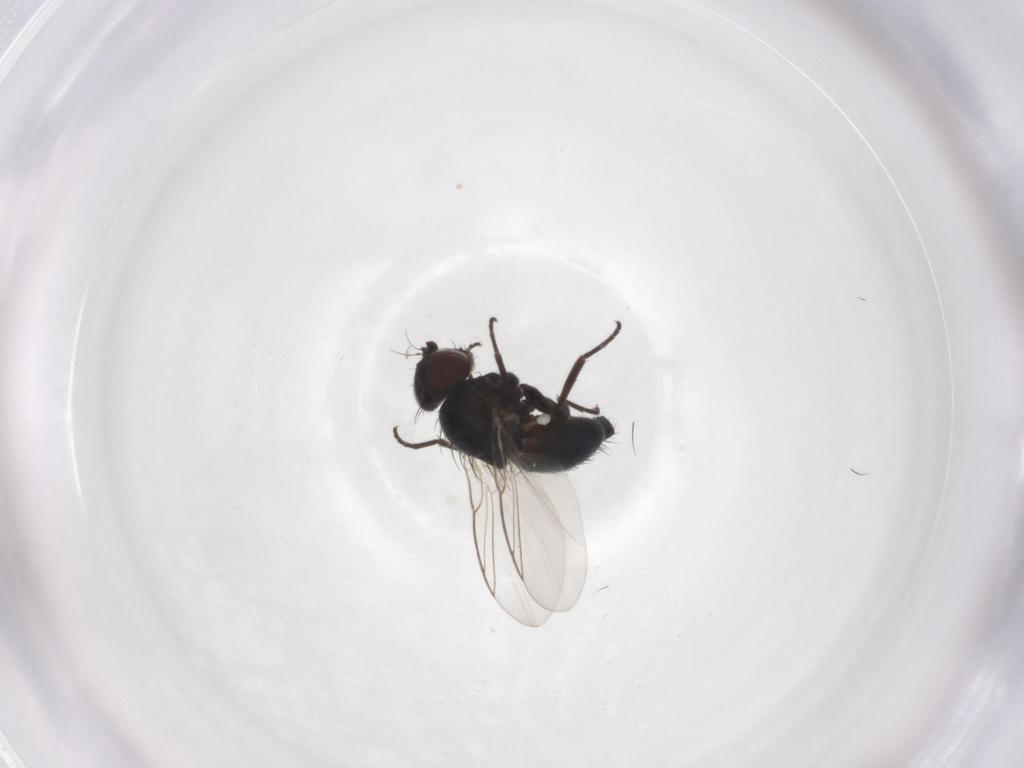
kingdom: Animalia
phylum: Arthropoda
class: Insecta
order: Diptera
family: Agromyzidae
